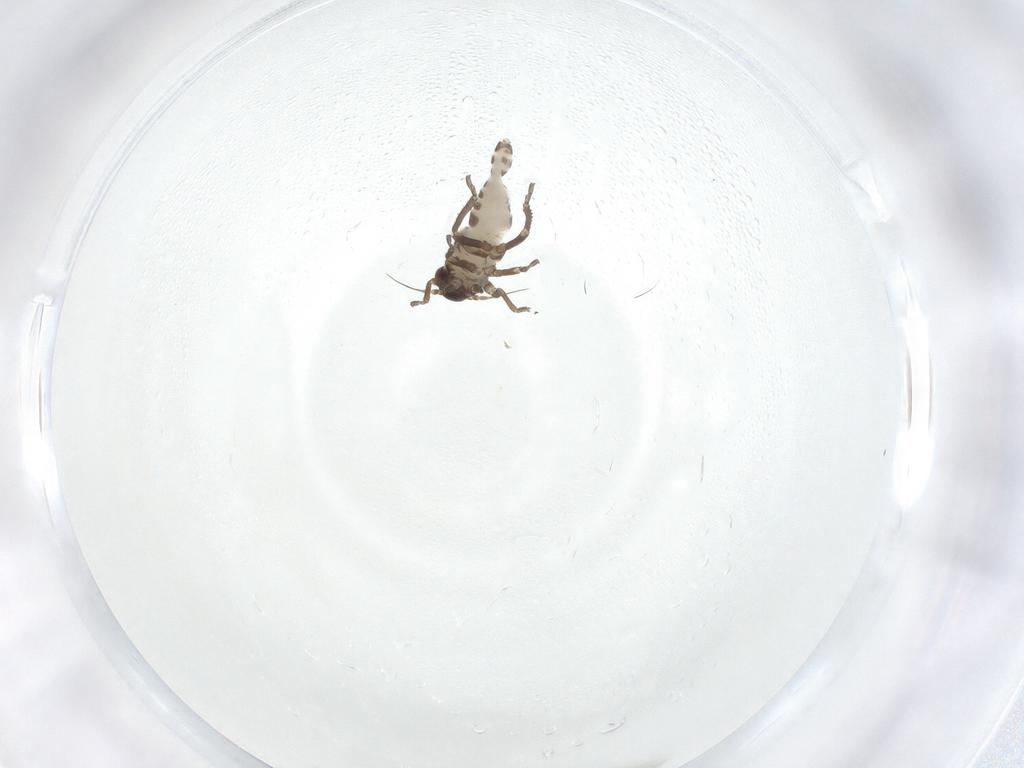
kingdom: Animalia
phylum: Arthropoda
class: Insecta
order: Hemiptera
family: Cicadellidae
